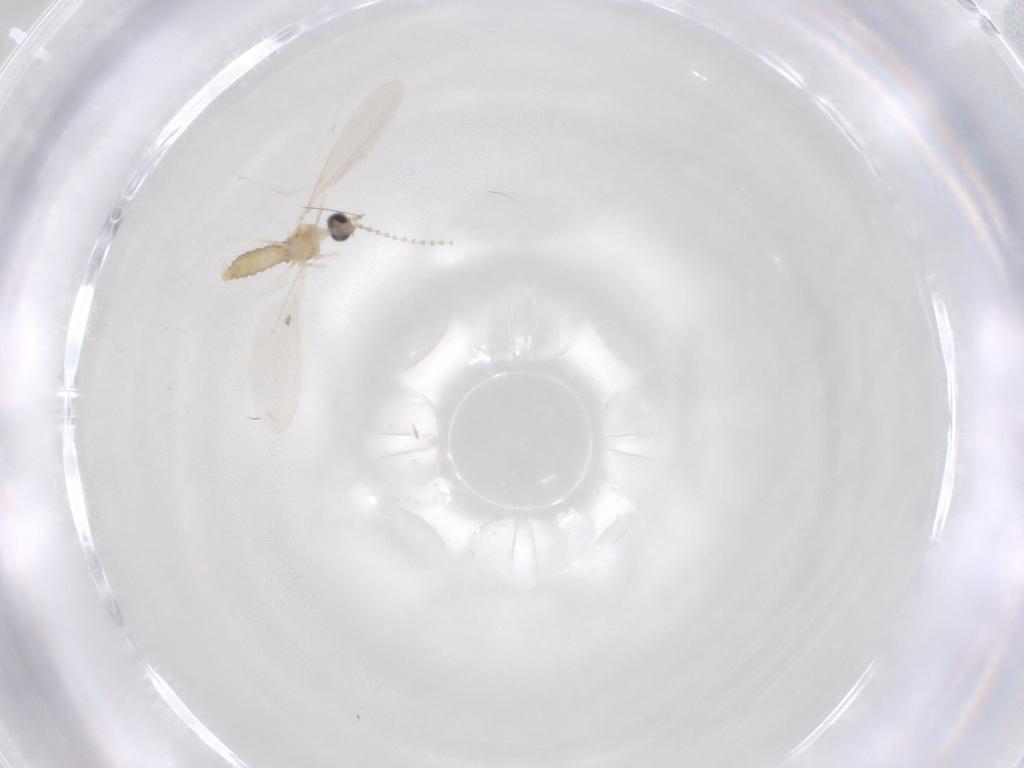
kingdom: Animalia
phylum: Arthropoda
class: Insecta
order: Diptera
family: Cecidomyiidae
